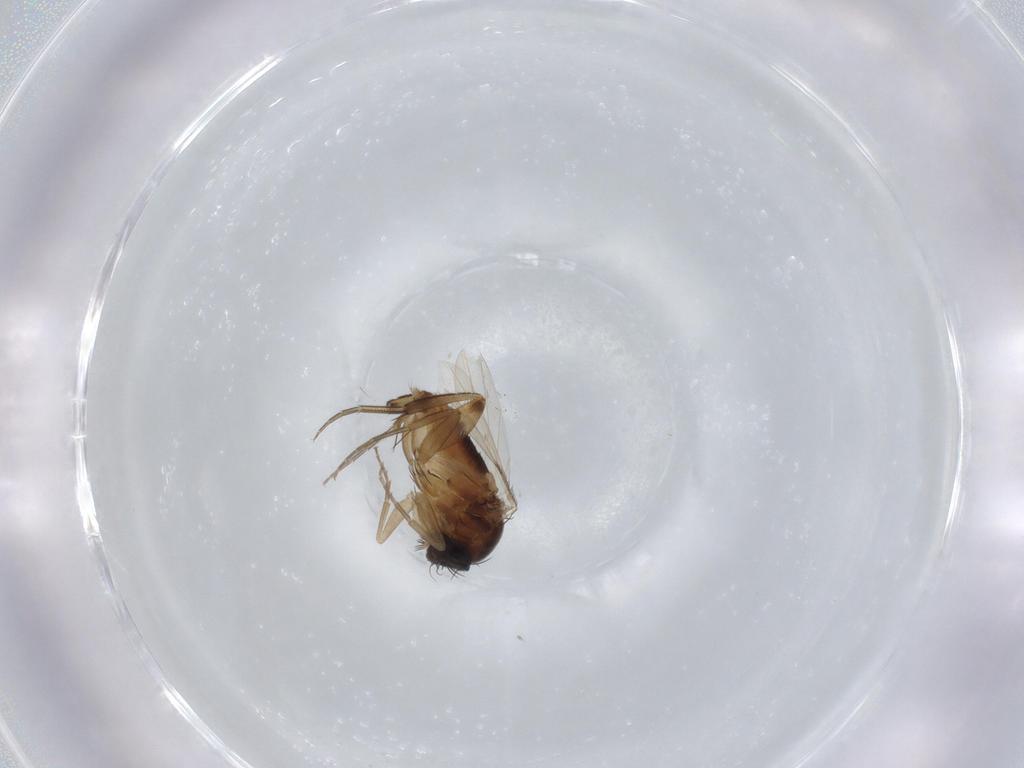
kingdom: Animalia
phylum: Arthropoda
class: Insecta
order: Diptera
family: Phoridae
